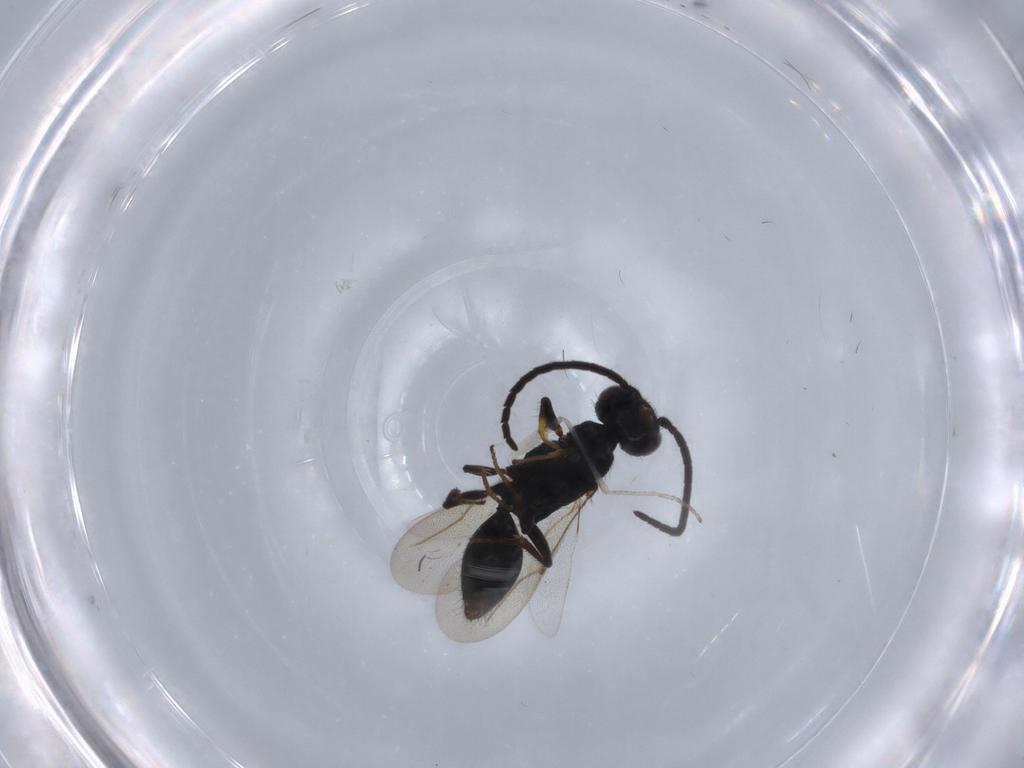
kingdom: Animalia
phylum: Arthropoda
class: Insecta
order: Hymenoptera
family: Bethylidae
